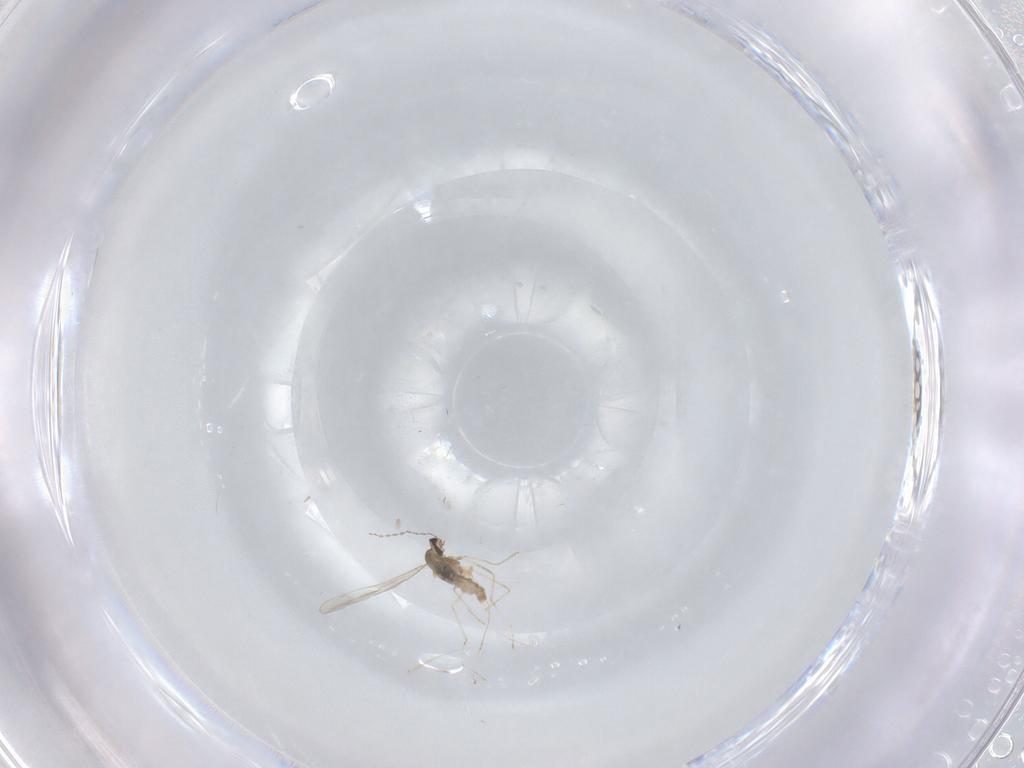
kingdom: Animalia
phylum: Arthropoda
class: Insecta
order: Diptera
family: Cecidomyiidae
